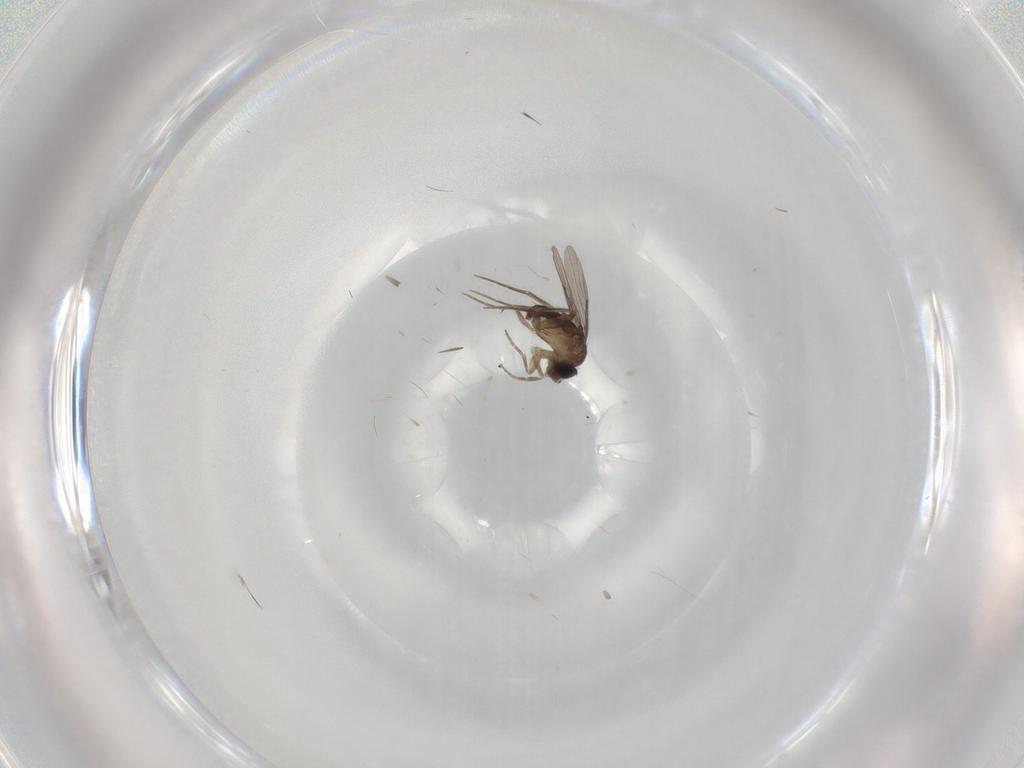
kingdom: Animalia
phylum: Arthropoda
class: Insecta
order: Diptera
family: Chironomidae
